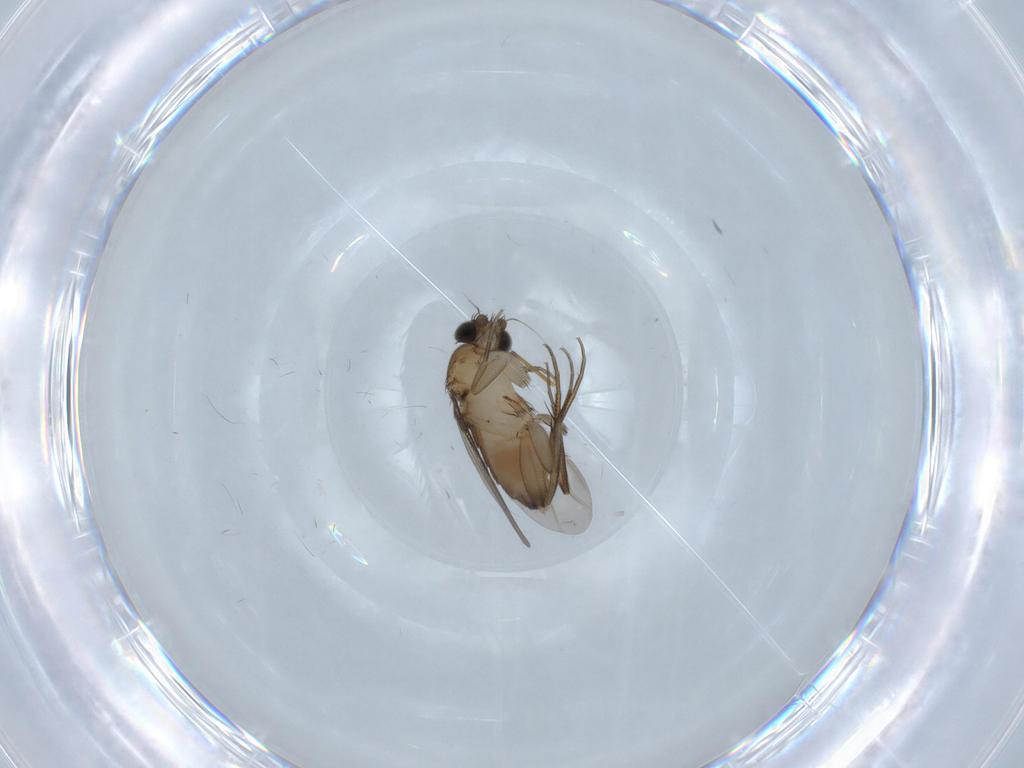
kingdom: Animalia
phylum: Arthropoda
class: Insecta
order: Diptera
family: Phoridae
